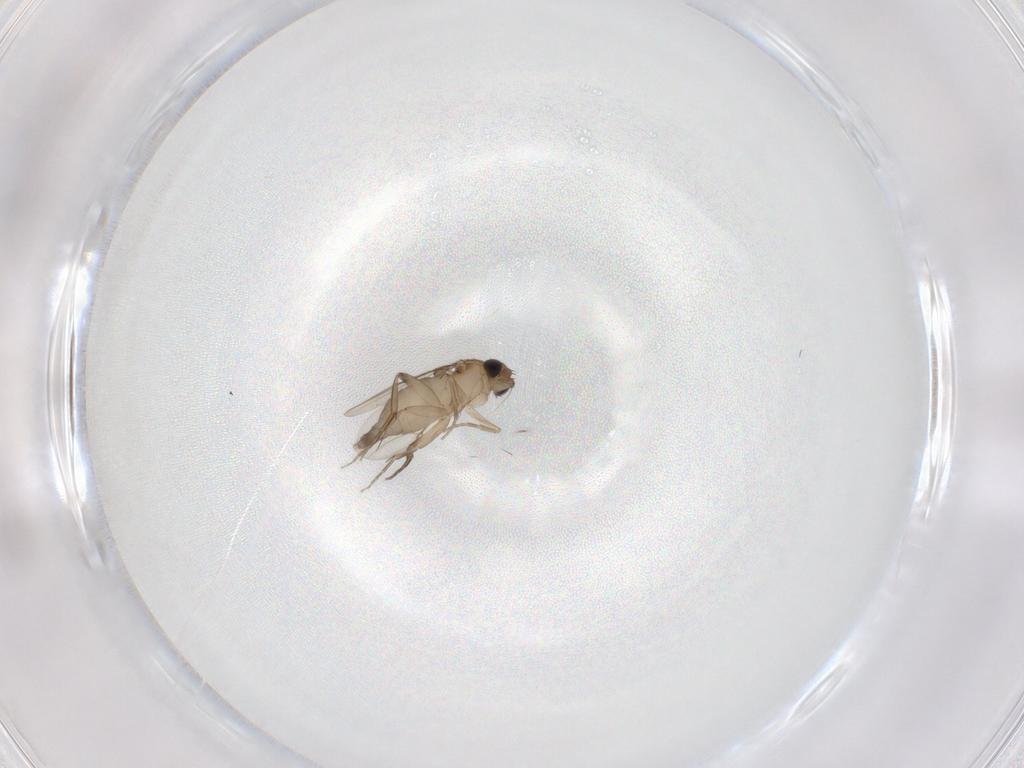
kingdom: Animalia
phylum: Arthropoda
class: Insecta
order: Diptera
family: Phoridae
